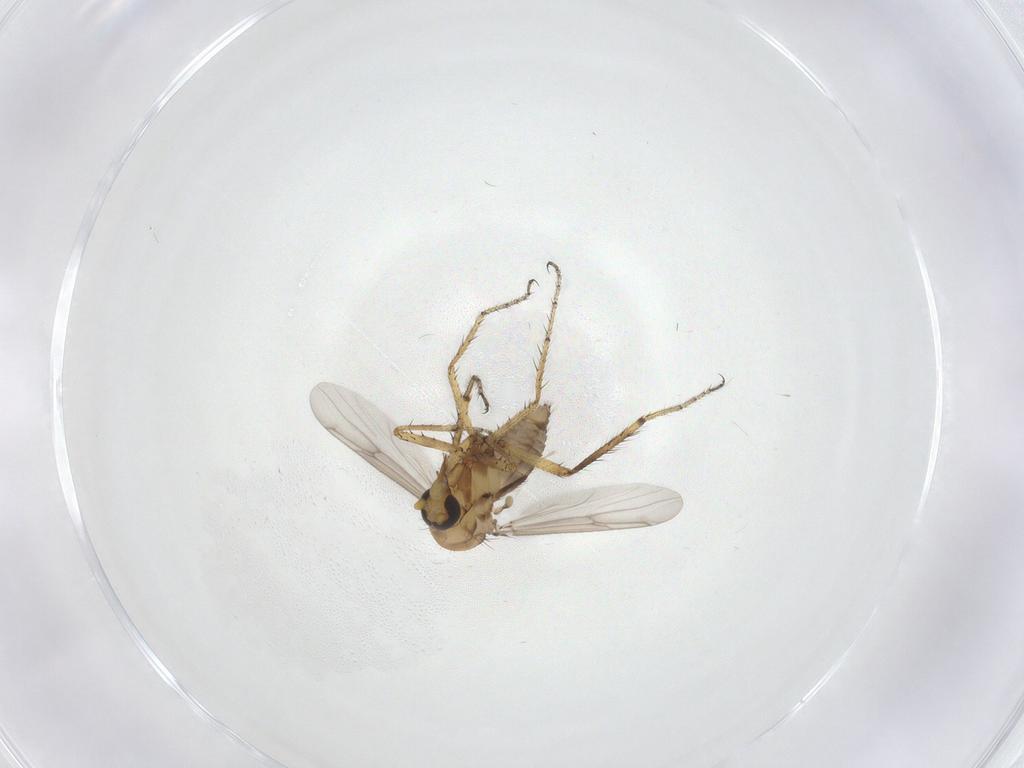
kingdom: Animalia
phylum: Arthropoda
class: Insecta
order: Diptera
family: Ceratopogonidae
